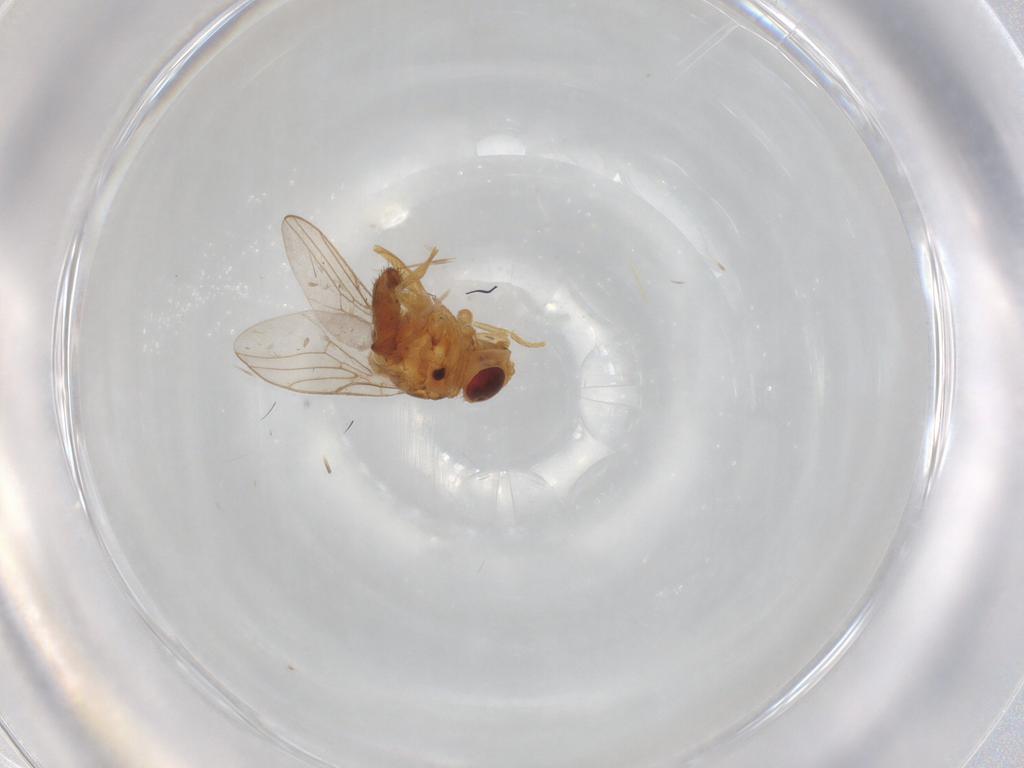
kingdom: Animalia
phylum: Arthropoda
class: Insecta
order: Diptera
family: Chloropidae
